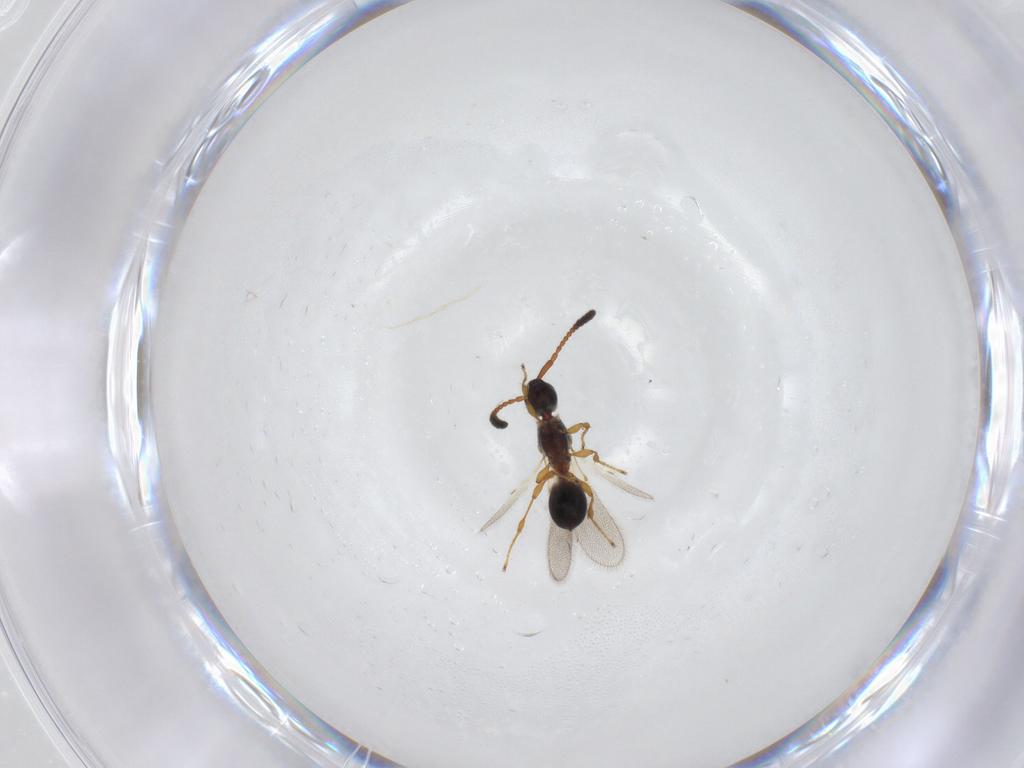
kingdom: Animalia
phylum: Arthropoda
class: Insecta
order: Hymenoptera
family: Diapriidae
